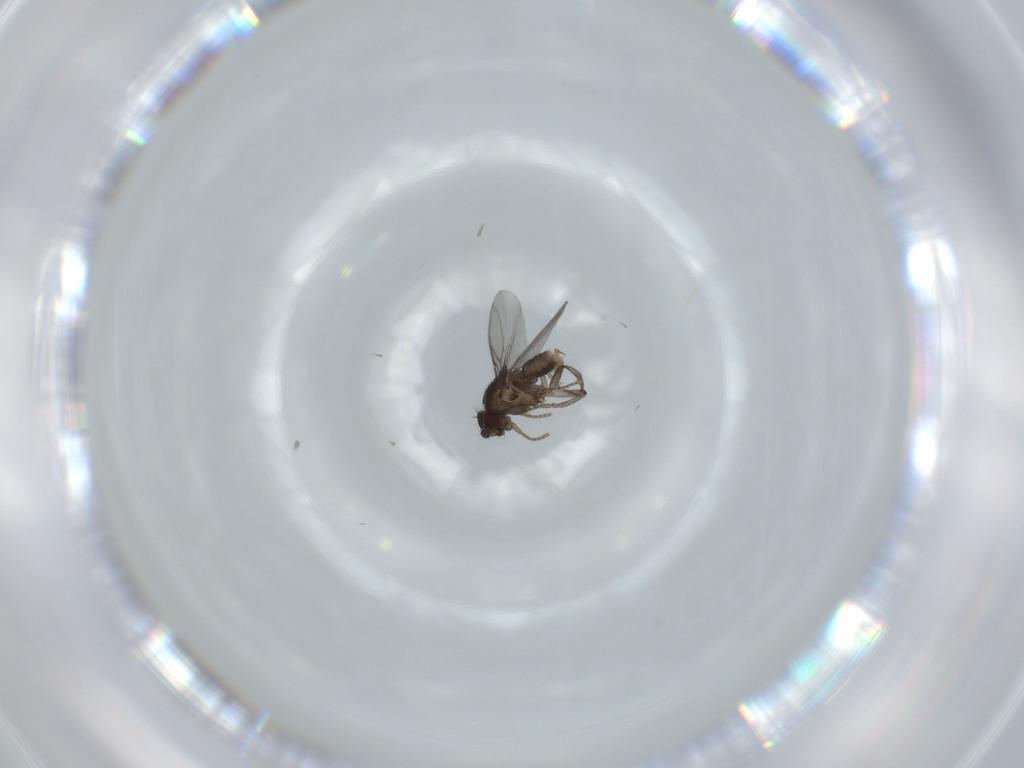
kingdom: Animalia
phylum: Arthropoda
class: Insecta
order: Diptera
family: Sphaeroceridae
